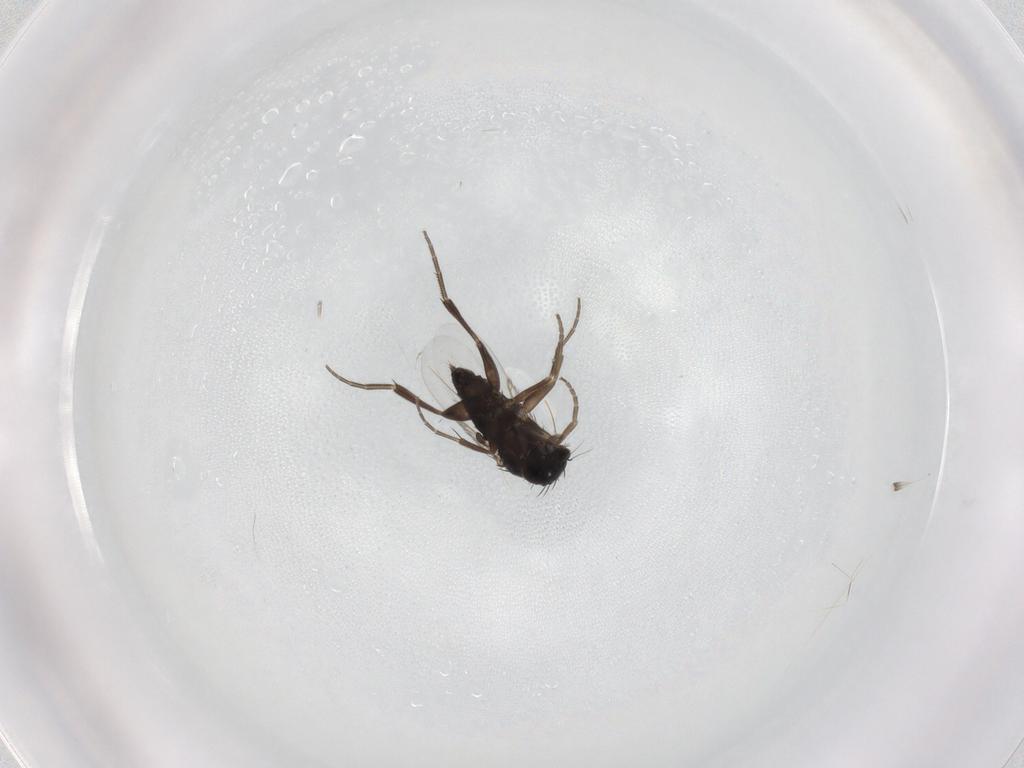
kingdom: Animalia
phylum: Arthropoda
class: Insecta
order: Diptera
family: Phoridae
